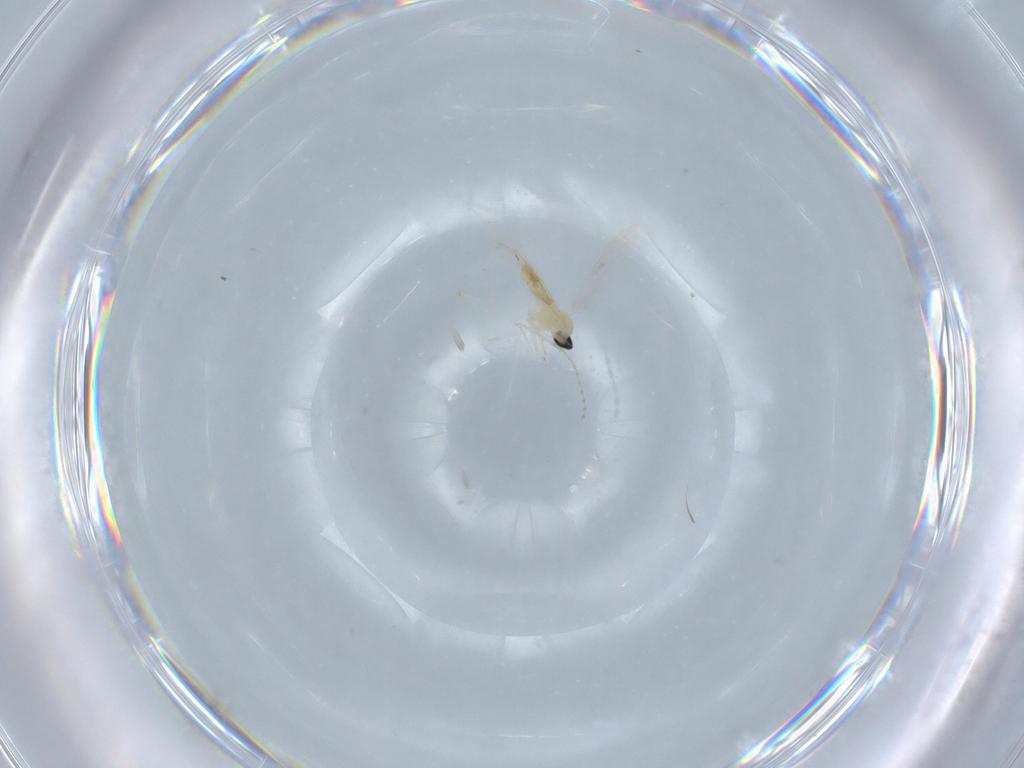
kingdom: Animalia
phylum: Arthropoda
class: Insecta
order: Diptera
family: Cecidomyiidae
